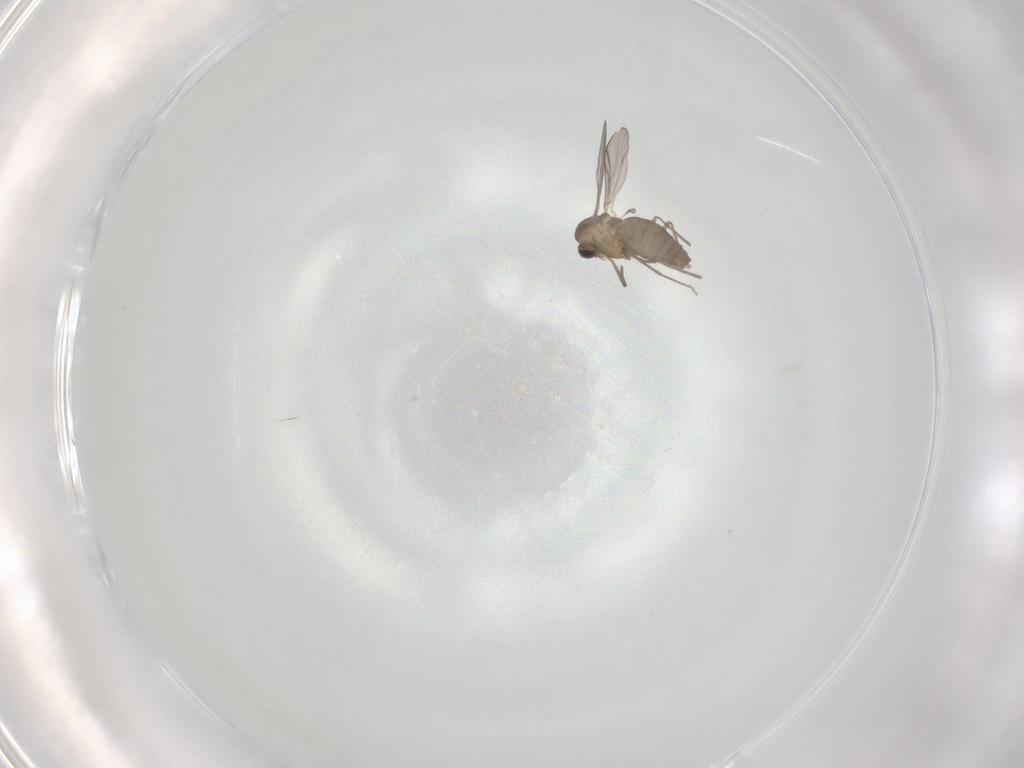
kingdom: Animalia
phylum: Arthropoda
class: Insecta
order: Diptera
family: Chironomidae
